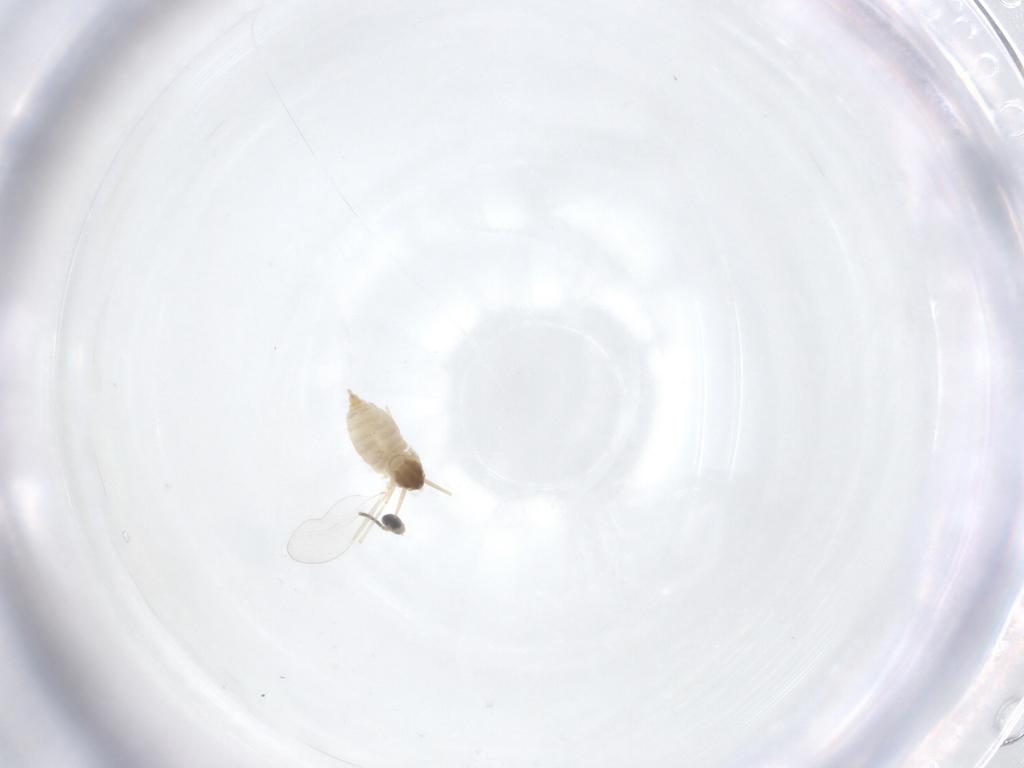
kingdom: Animalia
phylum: Arthropoda
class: Insecta
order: Diptera
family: Cecidomyiidae
